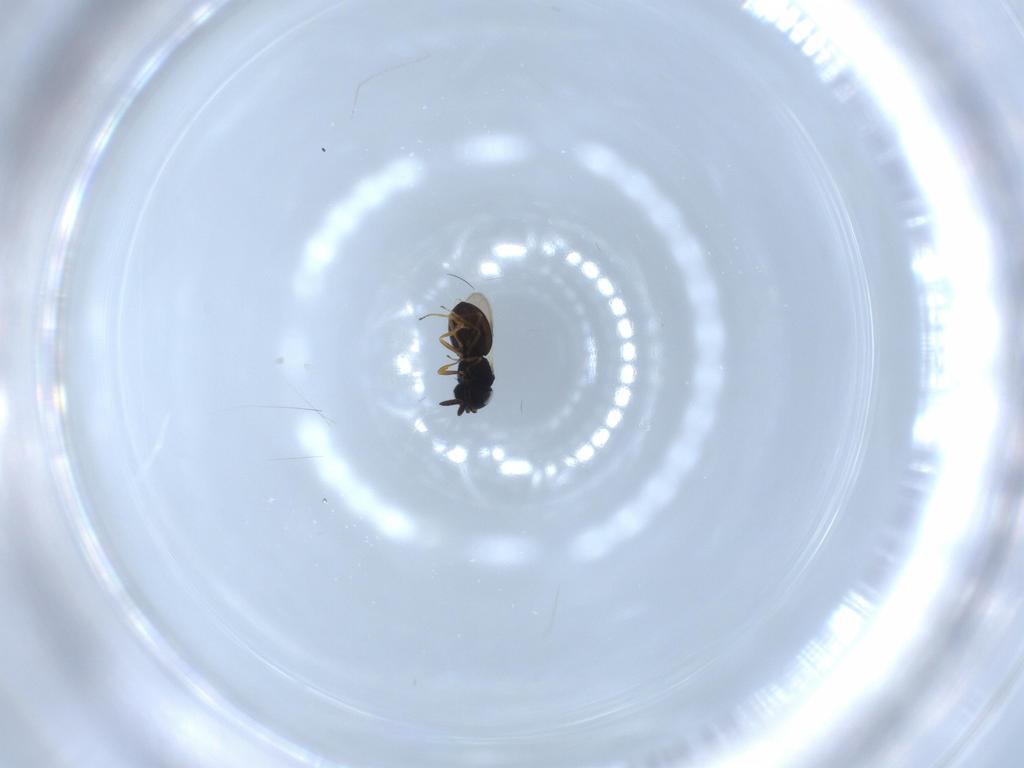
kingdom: Animalia
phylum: Arthropoda
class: Insecta
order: Hymenoptera
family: Scelionidae
